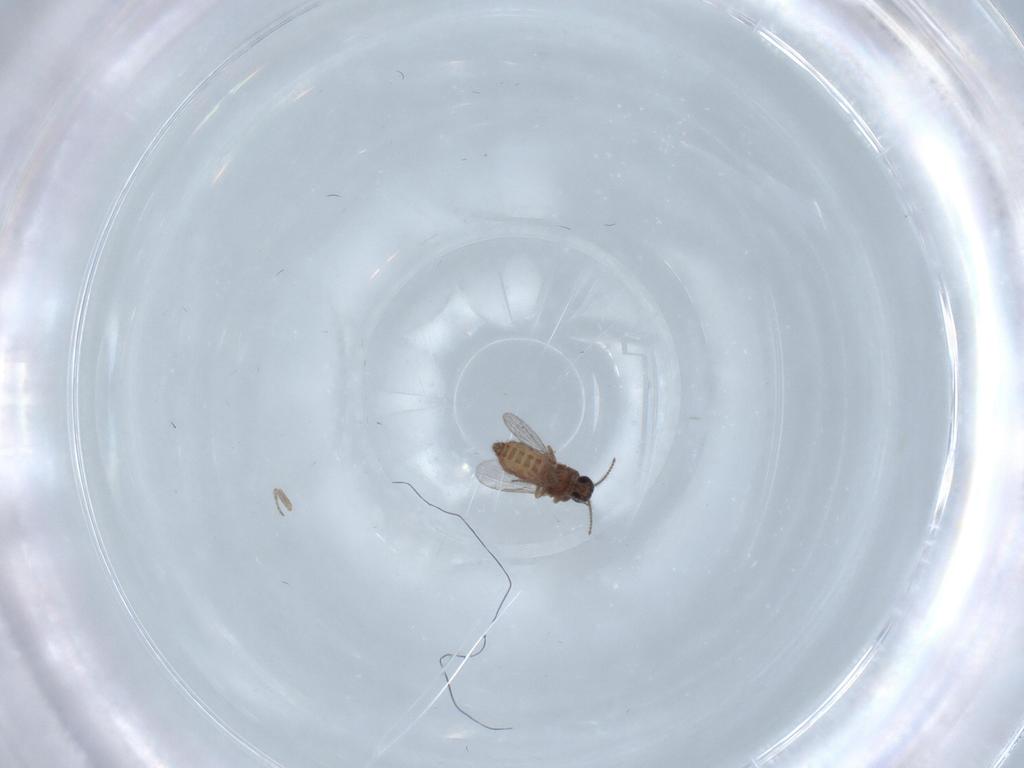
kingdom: Animalia
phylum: Arthropoda
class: Insecta
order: Diptera
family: Ceratopogonidae
